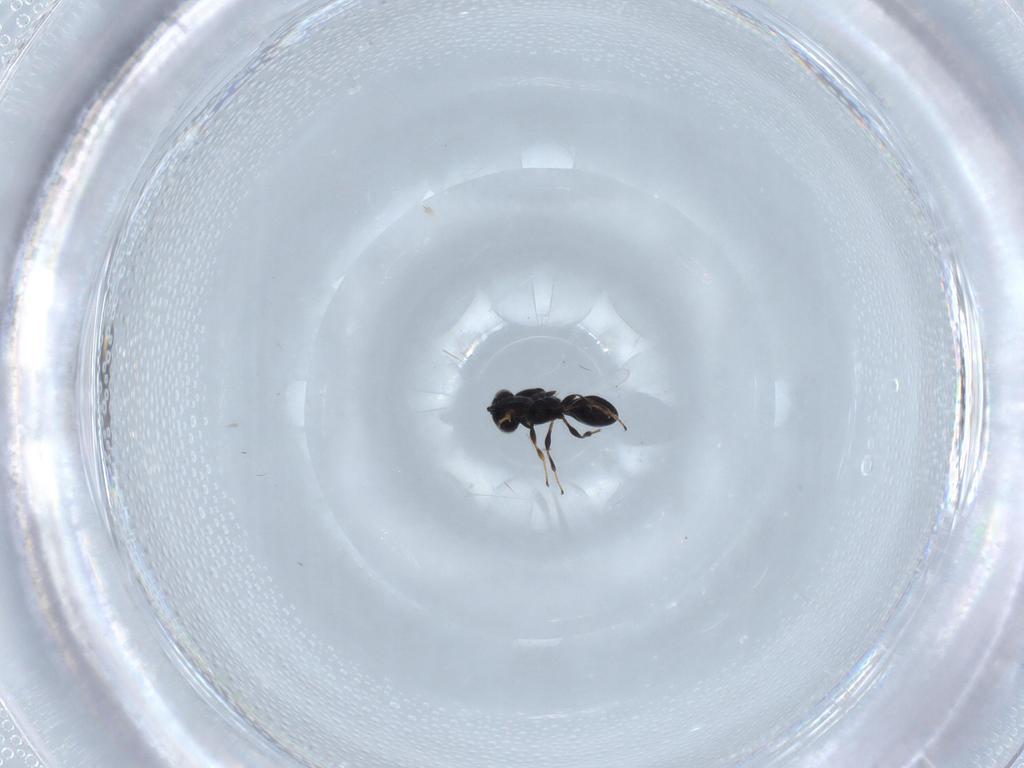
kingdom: Animalia
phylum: Arthropoda
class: Insecta
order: Hymenoptera
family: Platygastridae
